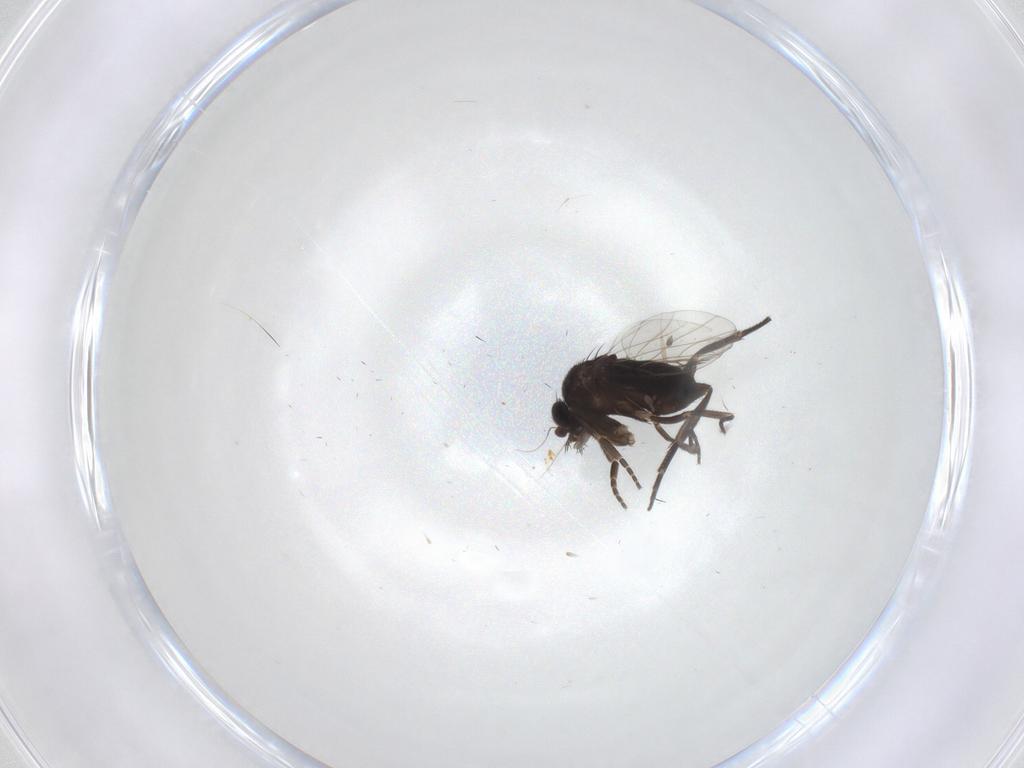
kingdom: Animalia
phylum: Arthropoda
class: Insecta
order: Diptera
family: Phoridae
